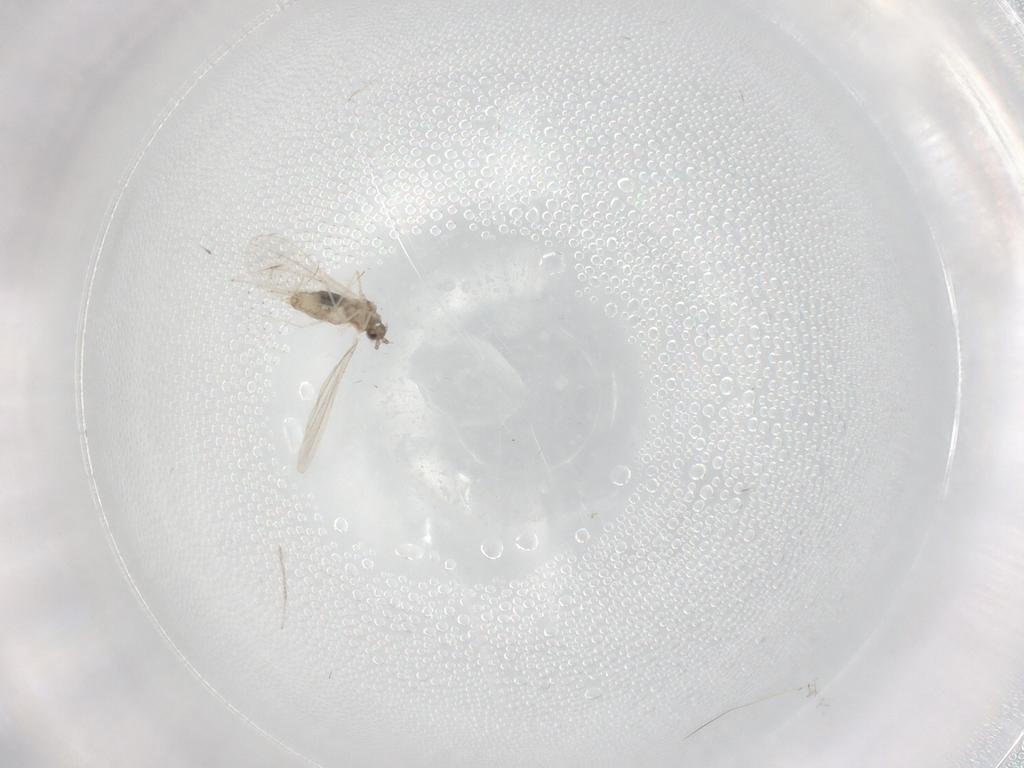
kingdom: Animalia
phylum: Arthropoda
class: Insecta
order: Diptera
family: Cecidomyiidae
